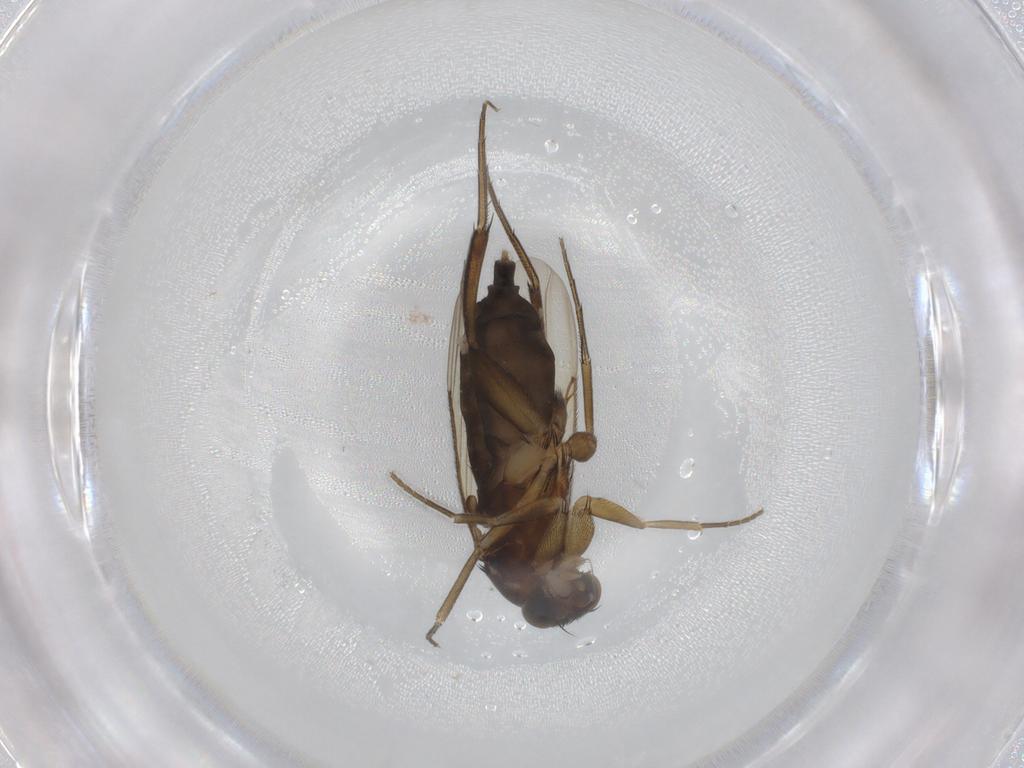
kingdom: Animalia
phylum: Arthropoda
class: Insecta
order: Diptera
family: Phoridae
